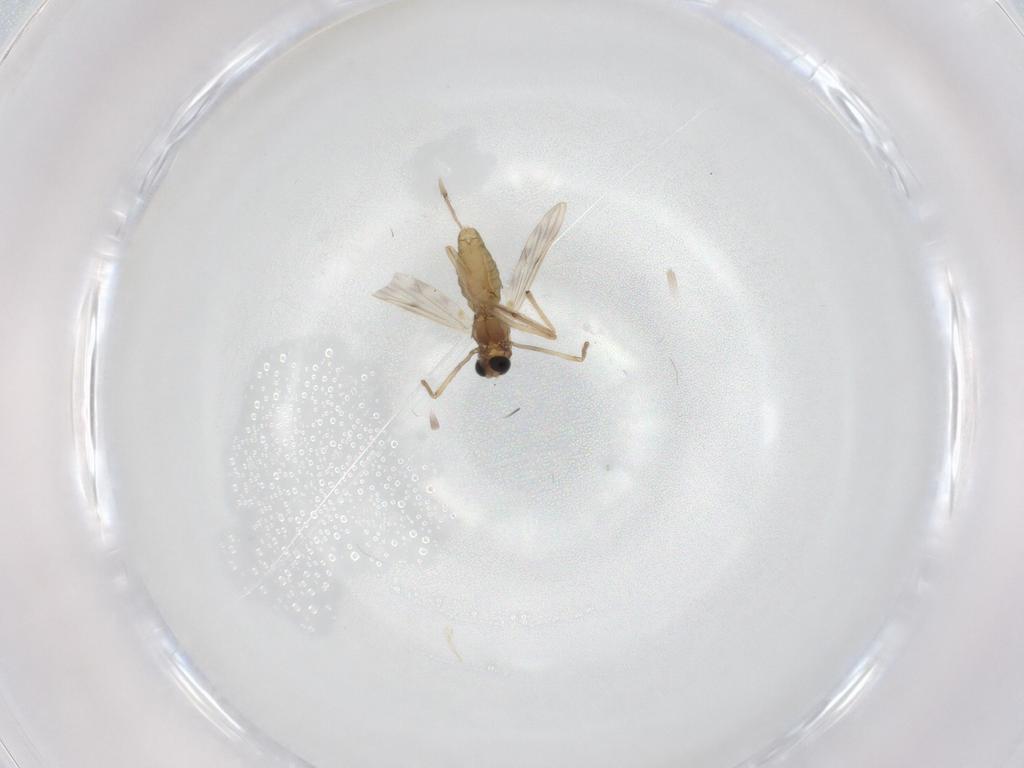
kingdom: Animalia
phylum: Arthropoda
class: Insecta
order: Diptera
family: Chironomidae
